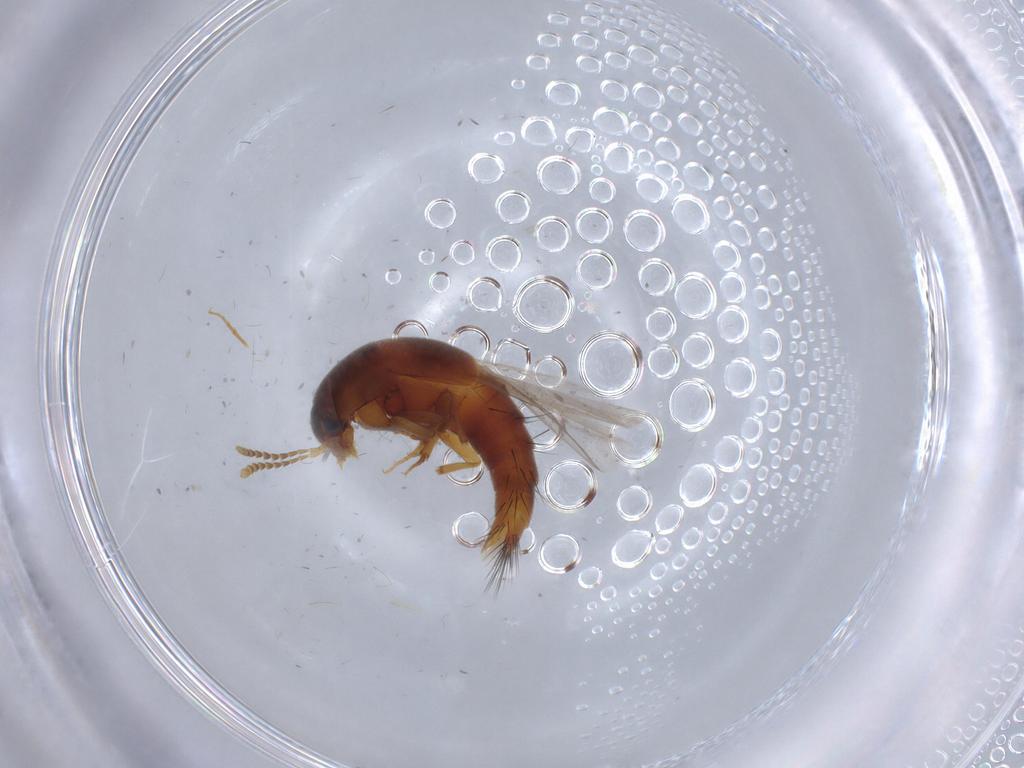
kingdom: Animalia
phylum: Arthropoda
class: Insecta
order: Coleoptera
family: Staphylinidae
